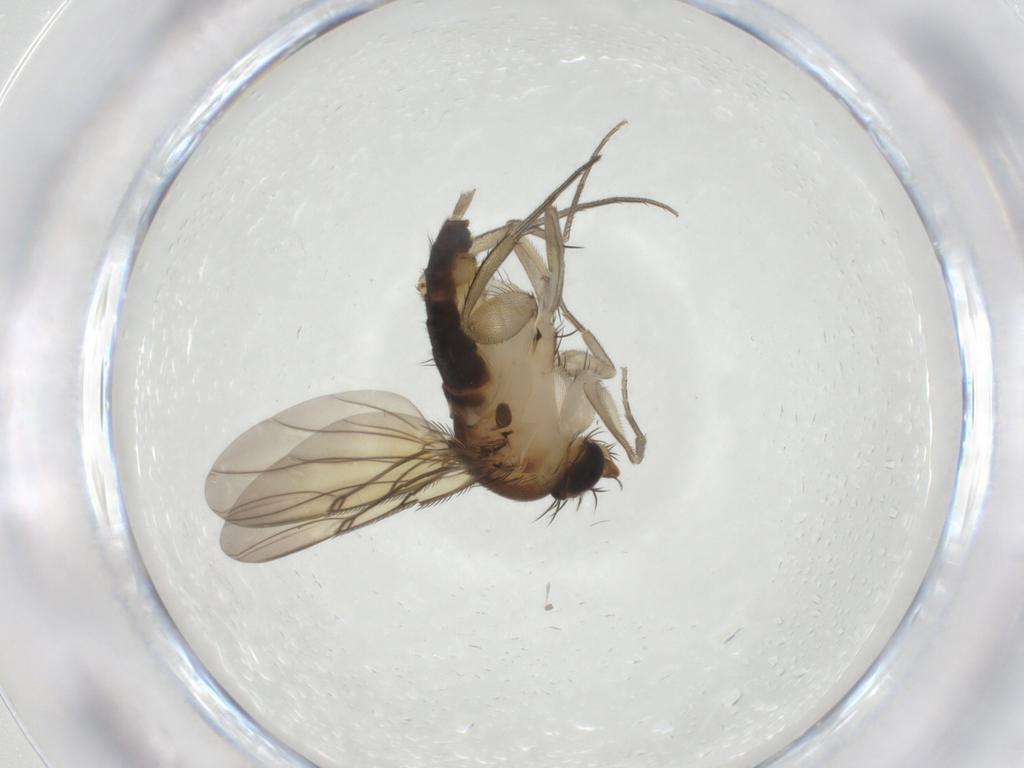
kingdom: Animalia
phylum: Arthropoda
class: Insecta
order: Diptera
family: Phoridae
